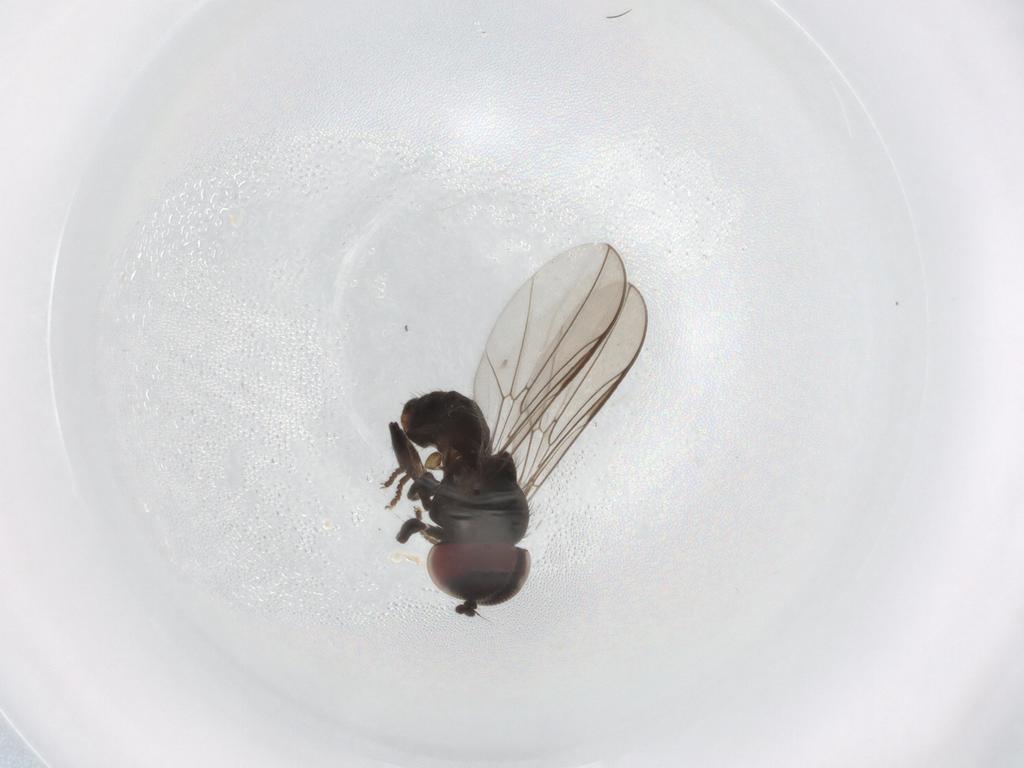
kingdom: Animalia
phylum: Arthropoda
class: Insecta
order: Diptera
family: Pipunculidae
